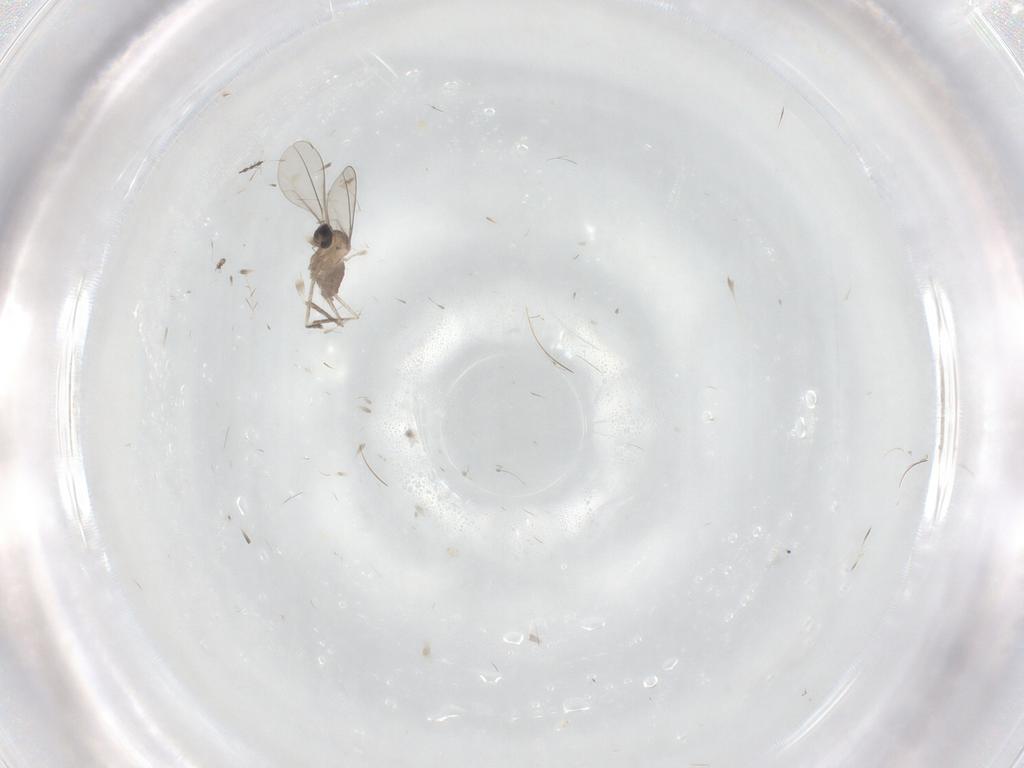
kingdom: Animalia
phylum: Arthropoda
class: Insecta
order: Diptera
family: Cecidomyiidae
